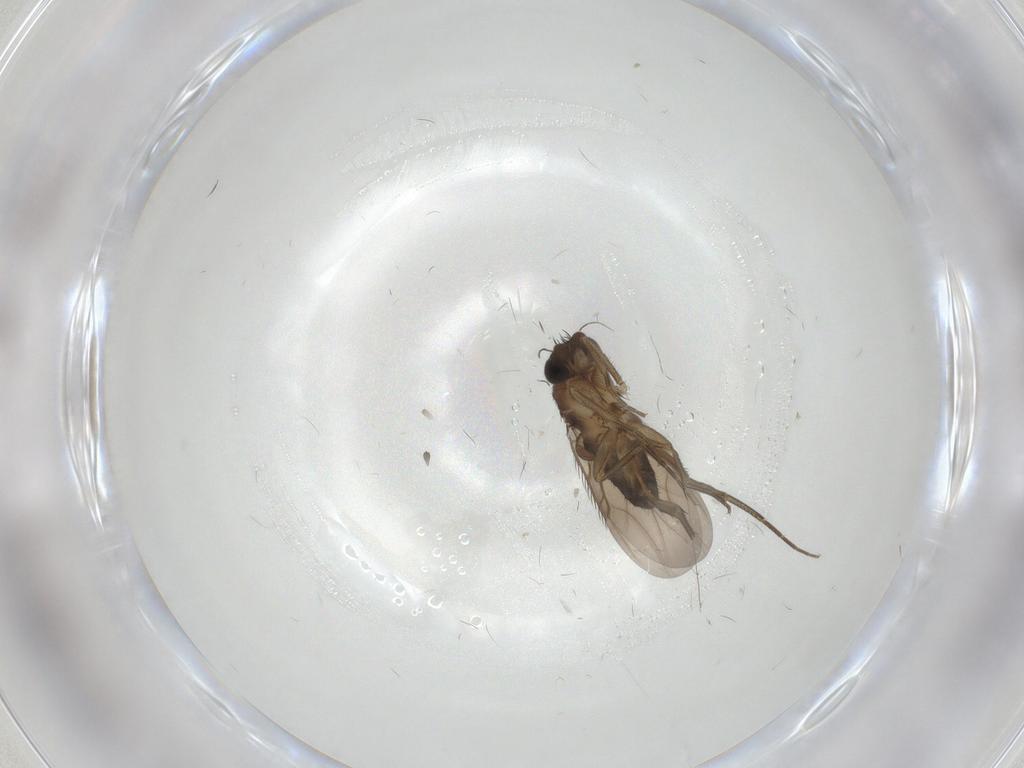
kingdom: Animalia
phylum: Arthropoda
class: Insecta
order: Diptera
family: Phoridae
